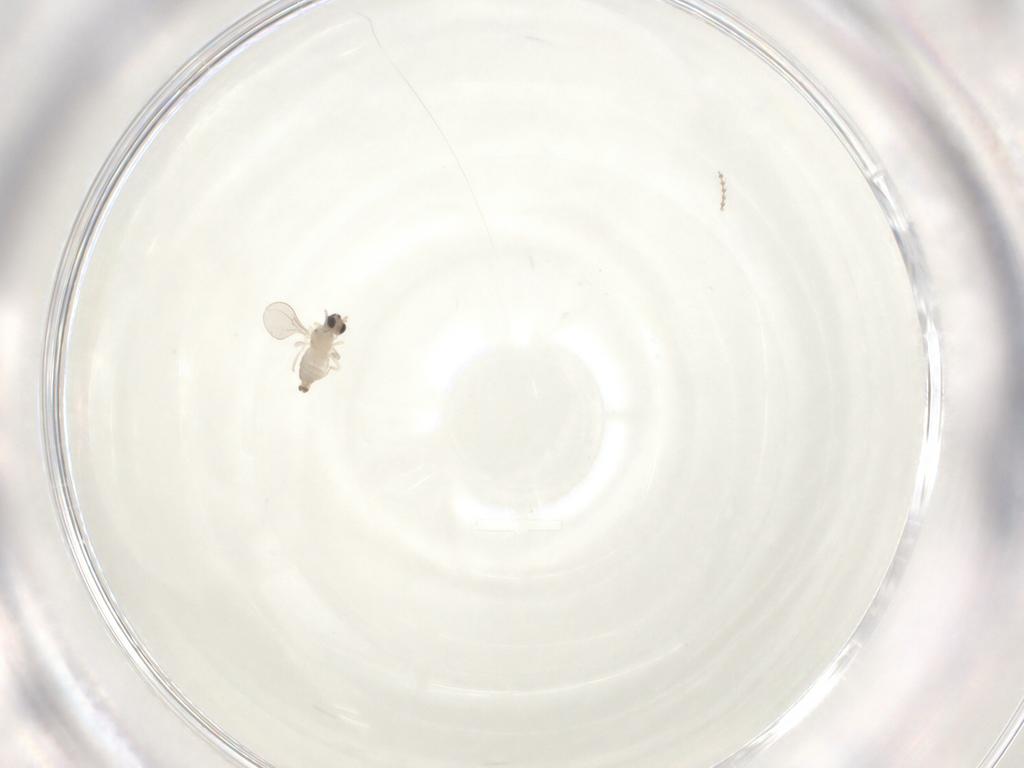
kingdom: Animalia
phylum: Arthropoda
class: Insecta
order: Diptera
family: Cecidomyiidae
